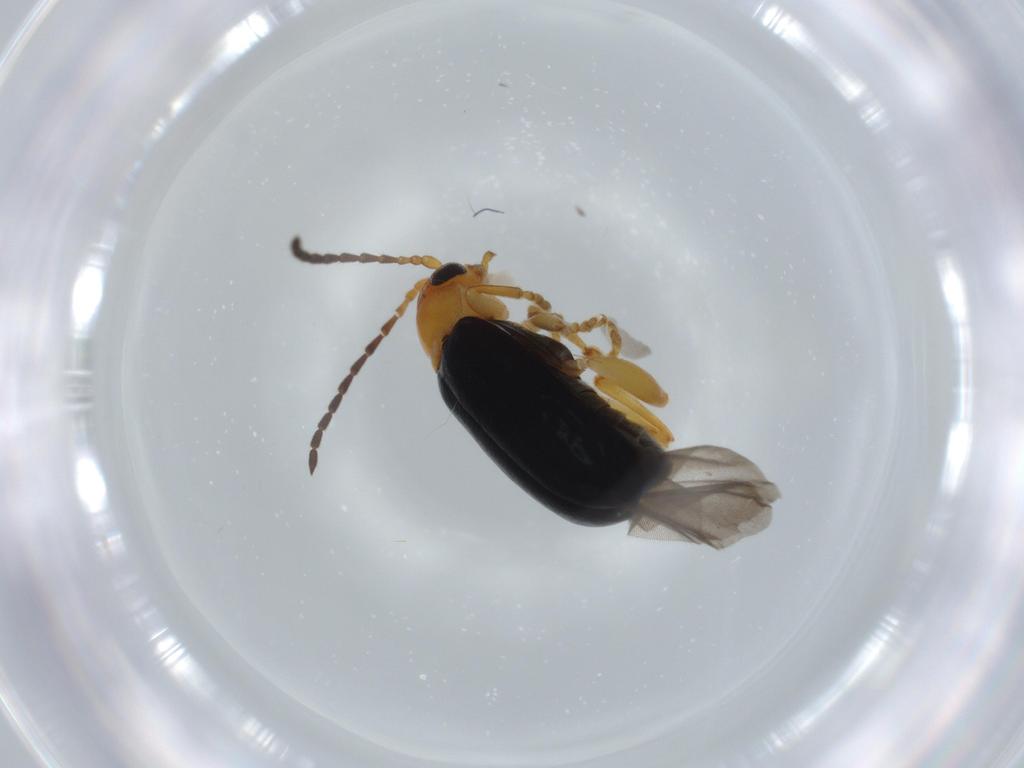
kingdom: Animalia
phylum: Arthropoda
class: Insecta
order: Coleoptera
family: Chrysomelidae
